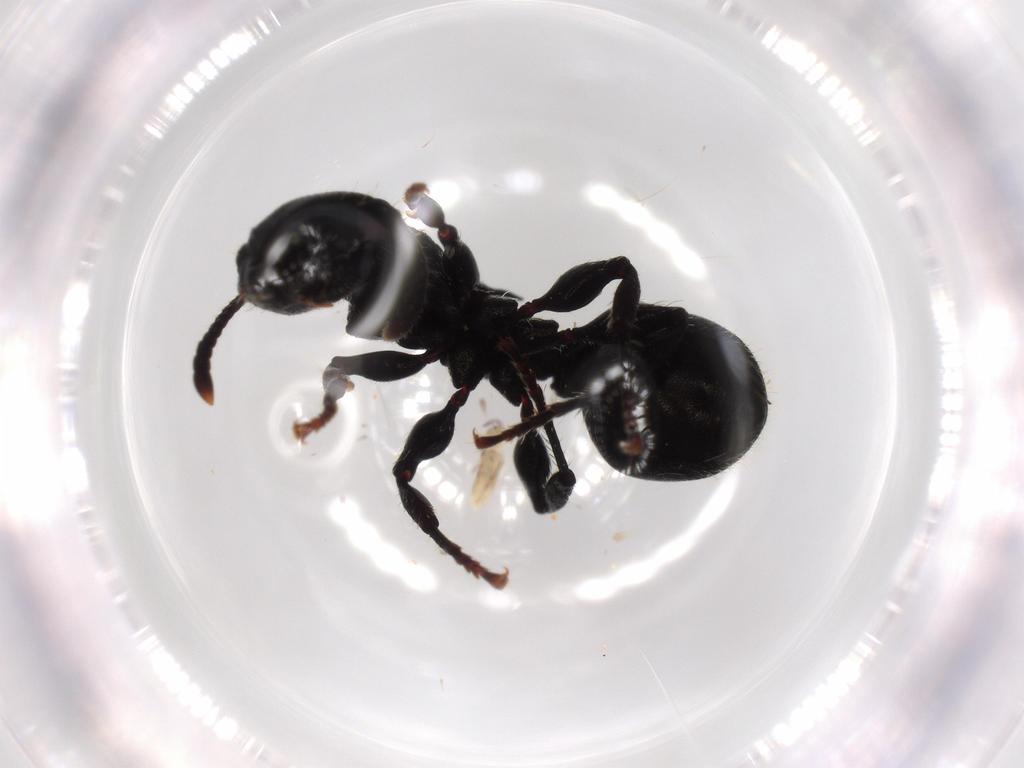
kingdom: Animalia
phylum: Arthropoda
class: Insecta
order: Hymenoptera
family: Formicidae
